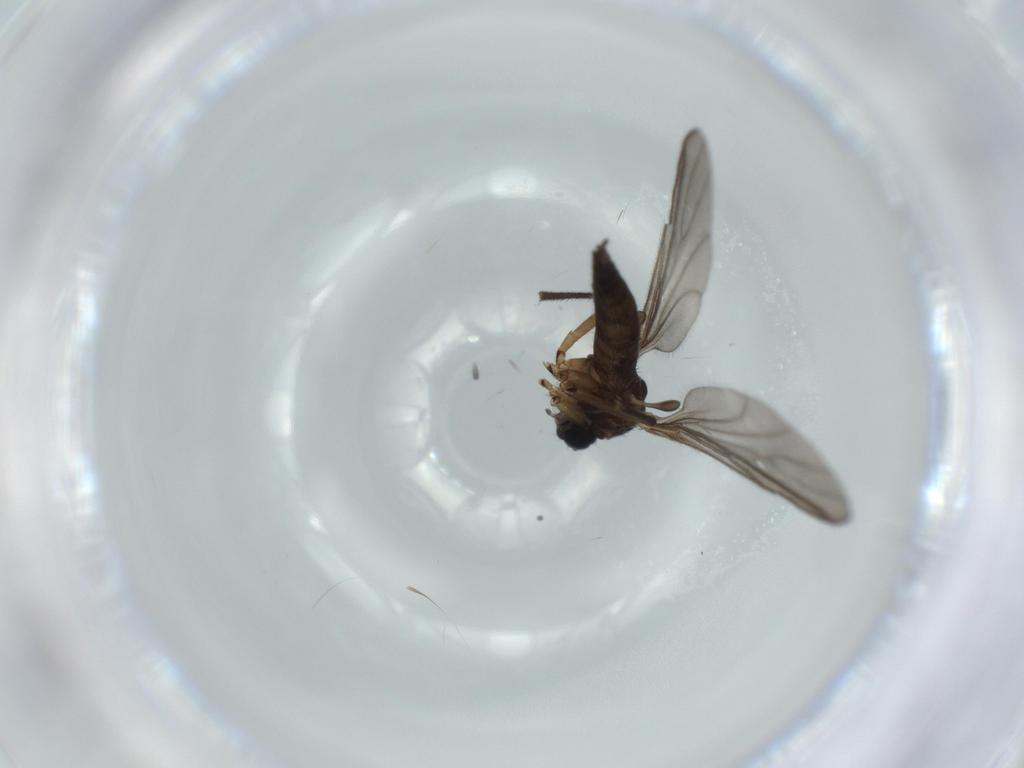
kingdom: Animalia
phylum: Arthropoda
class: Insecta
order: Diptera
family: Sciaridae
